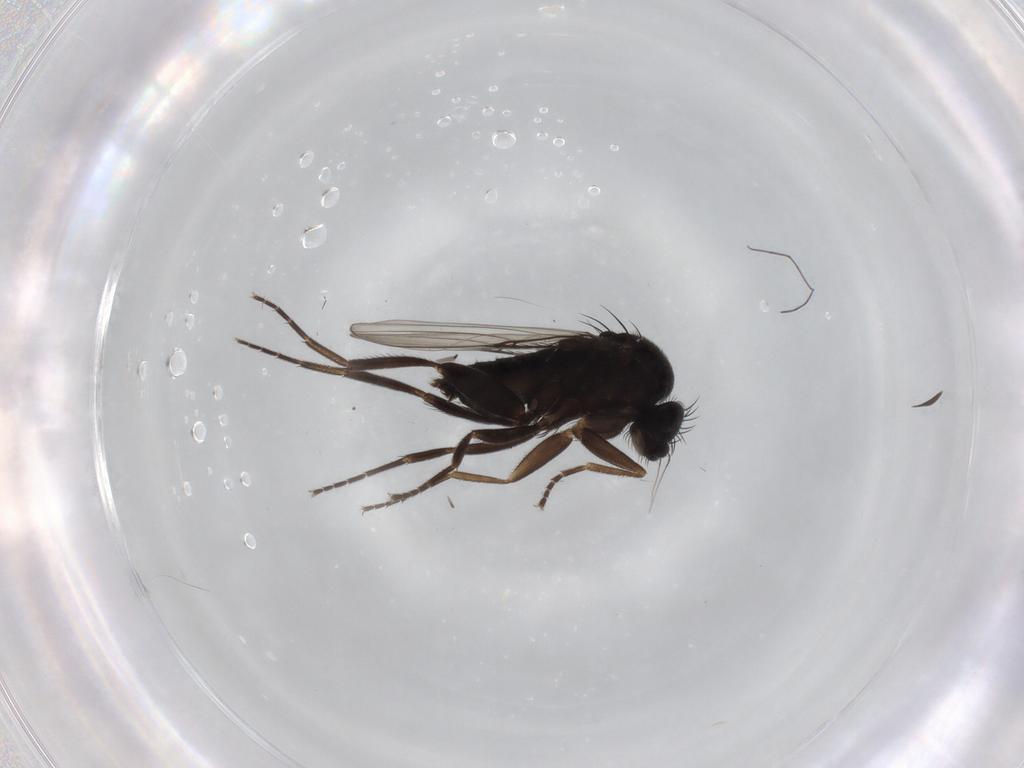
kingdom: Animalia
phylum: Arthropoda
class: Insecta
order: Diptera
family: Phoridae
